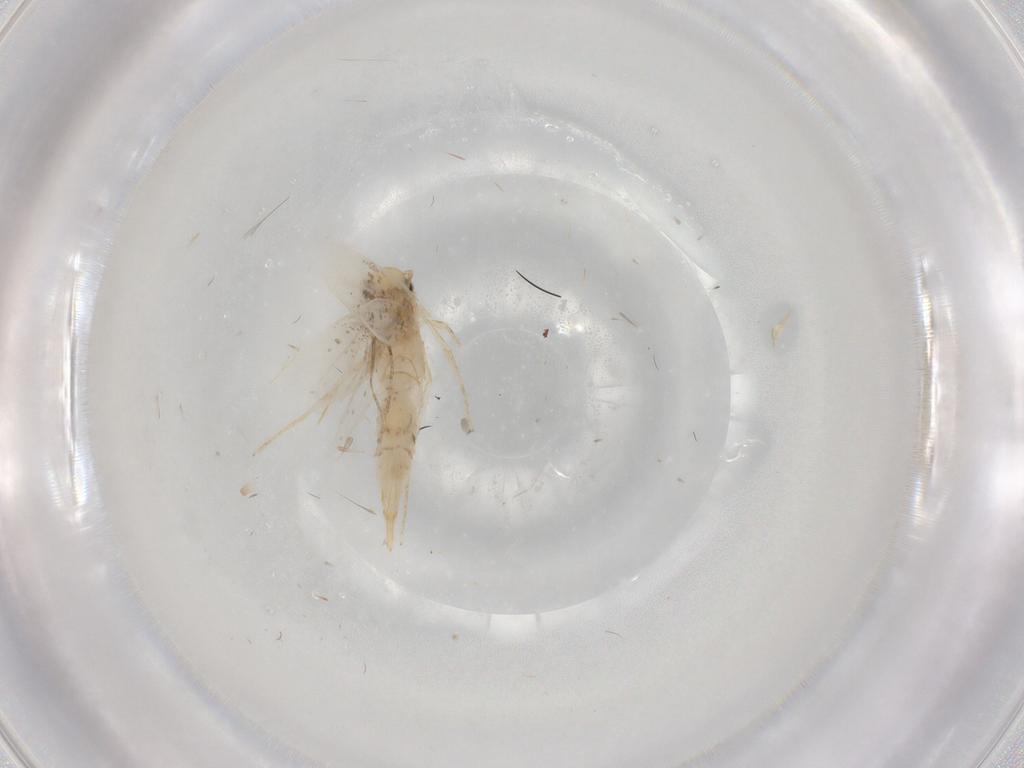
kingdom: Animalia
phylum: Arthropoda
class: Insecta
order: Lepidoptera
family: Tineidae
